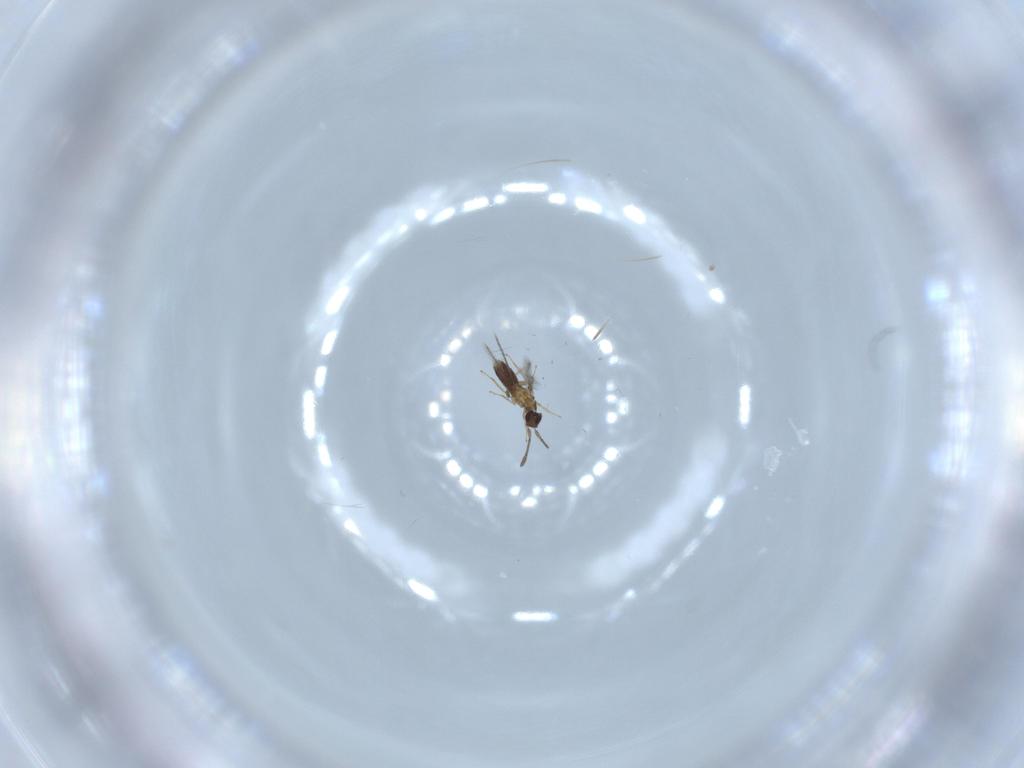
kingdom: Animalia
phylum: Arthropoda
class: Insecta
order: Hymenoptera
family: Mymaridae
